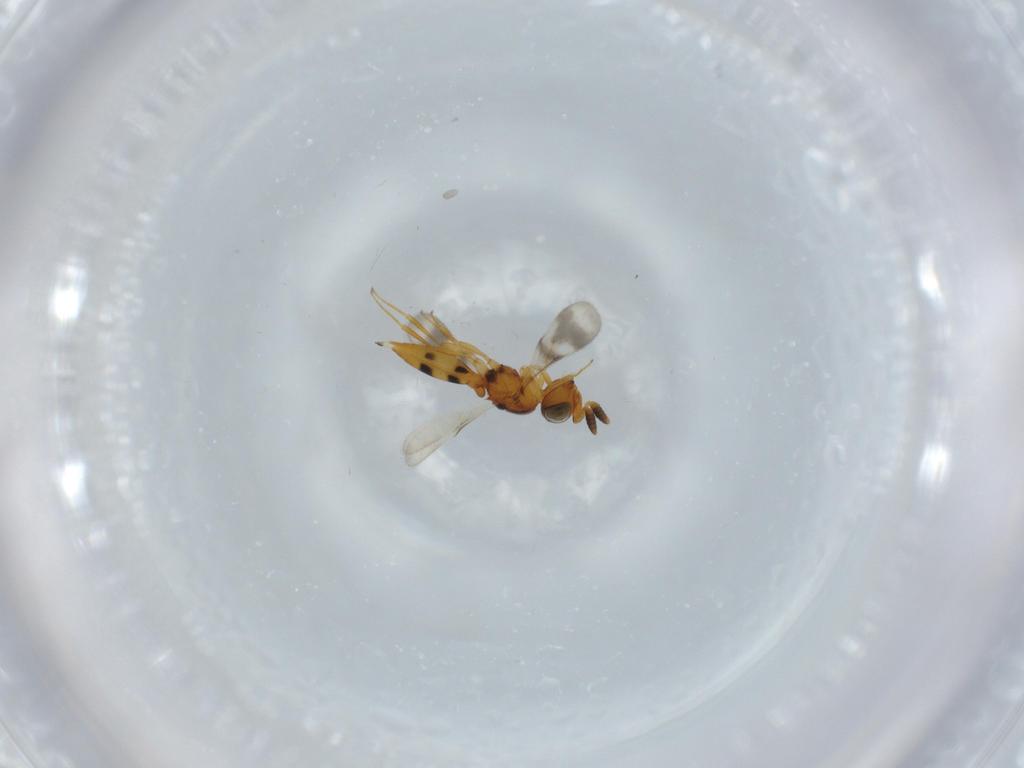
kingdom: Animalia
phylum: Arthropoda
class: Insecta
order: Hymenoptera
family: Scelionidae
